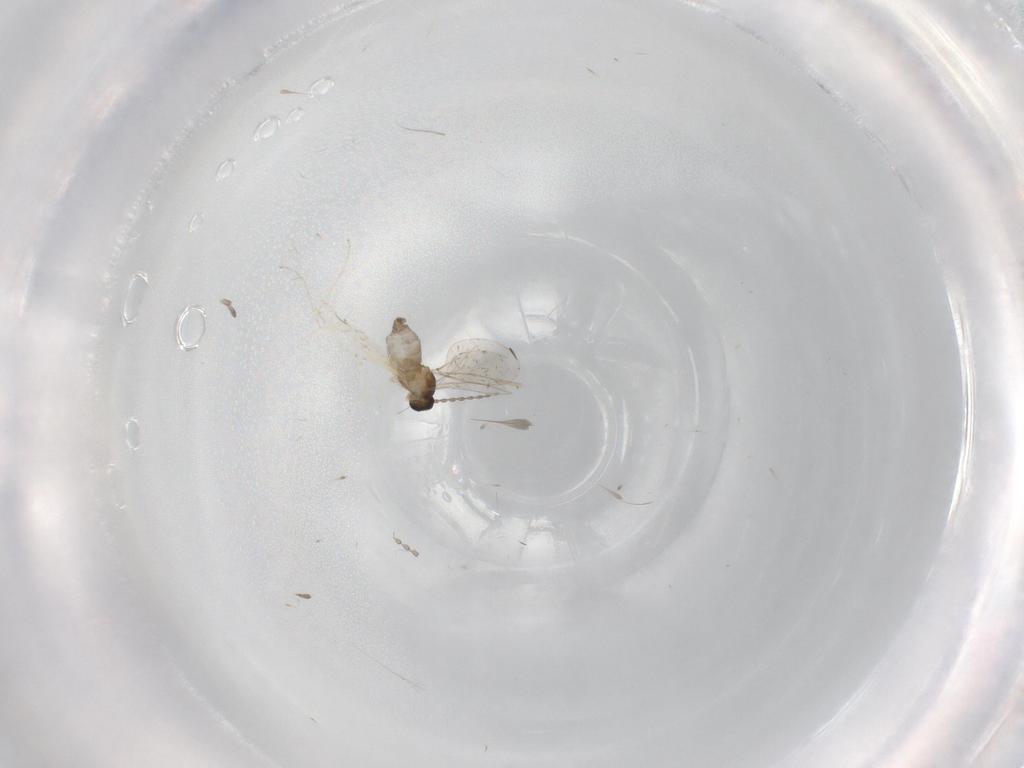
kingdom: Animalia
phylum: Arthropoda
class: Insecta
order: Diptera
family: Cecidomyiidae
